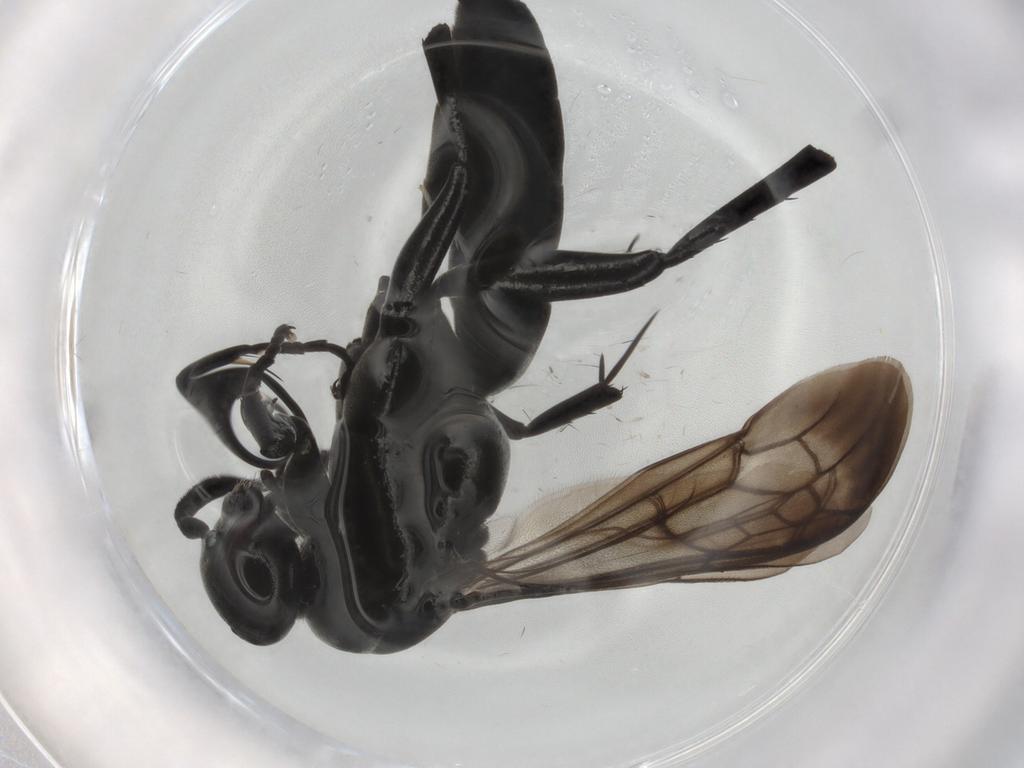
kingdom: Animalia
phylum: Arthropoda
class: Insecta
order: Hymenoptera
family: Pompilidae
